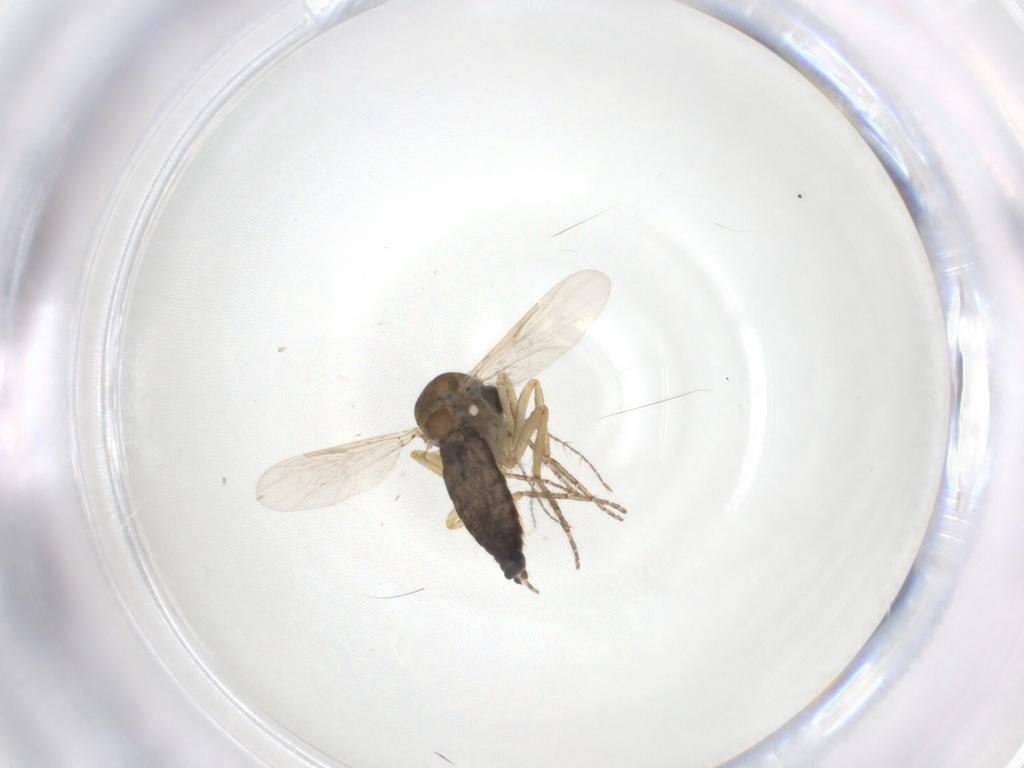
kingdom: Animalia
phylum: Arthropoda
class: Insecta
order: Diptera
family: Limoniidae
